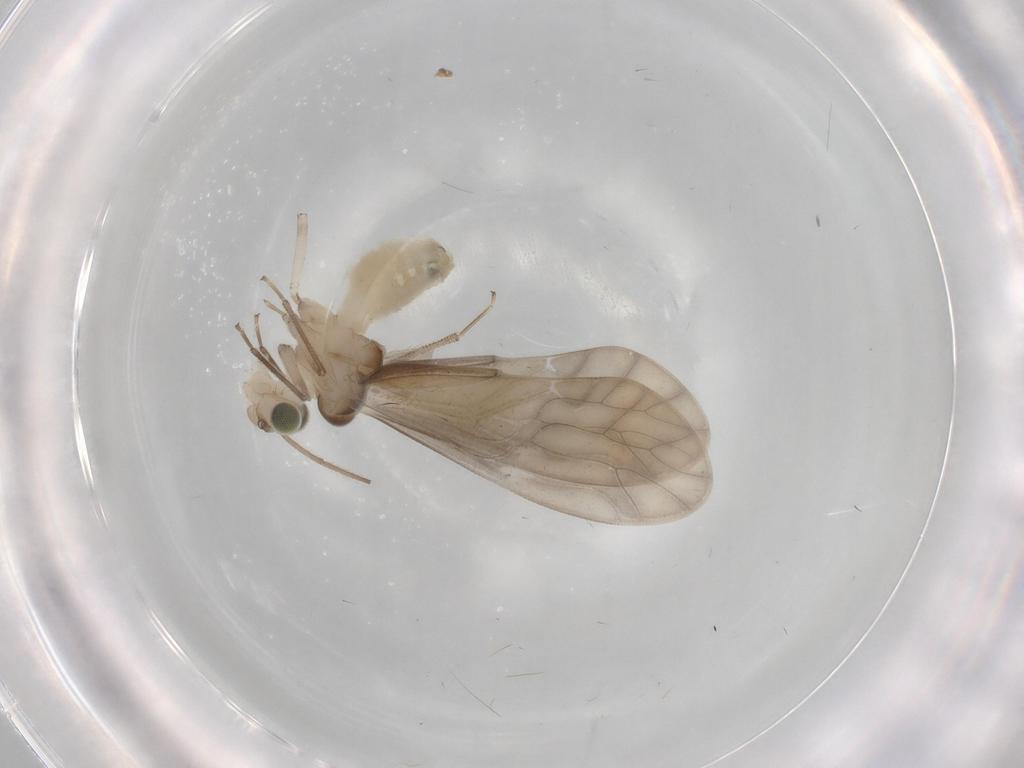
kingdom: Animalia
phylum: Arthropoda
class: Insecta
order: Psocodea
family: Caeciliusidae
